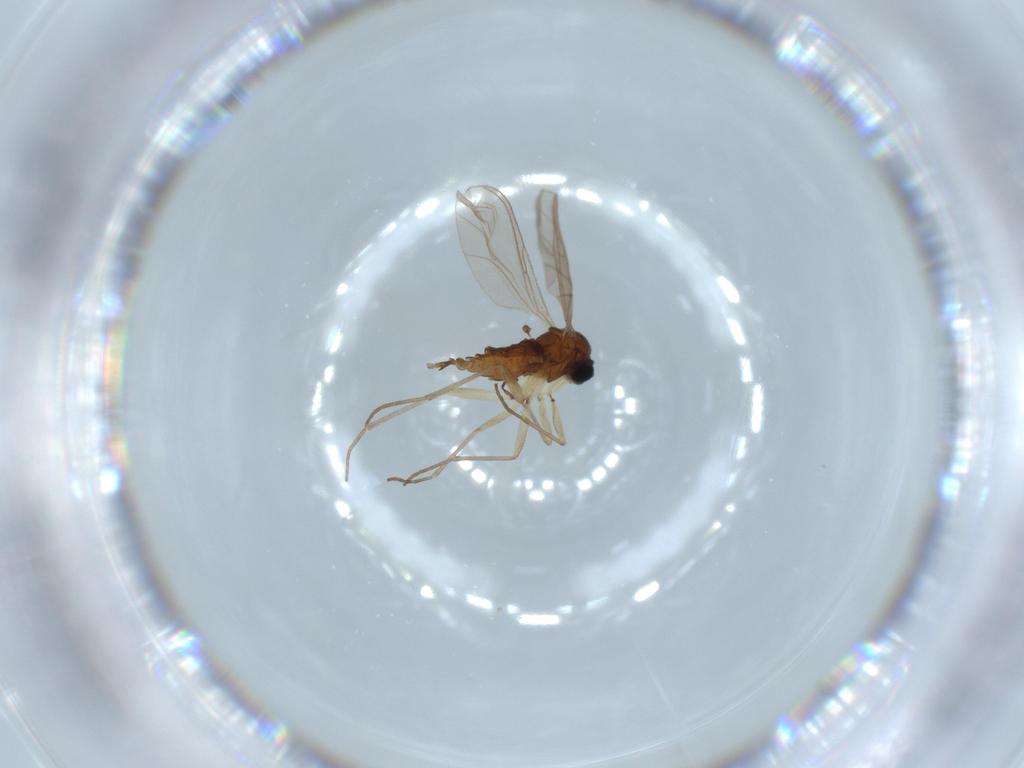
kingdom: Animalia
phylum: Arthropoda
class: Insecta
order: Diptera
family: Sciaridae
